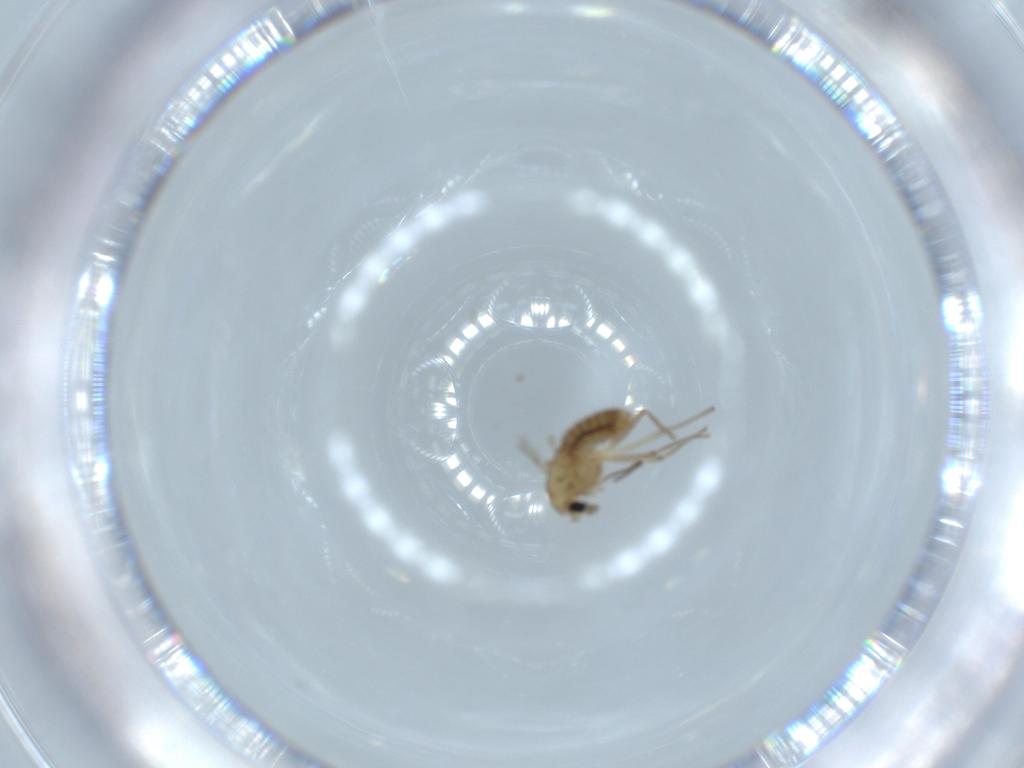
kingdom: Animalia
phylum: Arthropoda
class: Insecta
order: Diptera
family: Chironomidae
